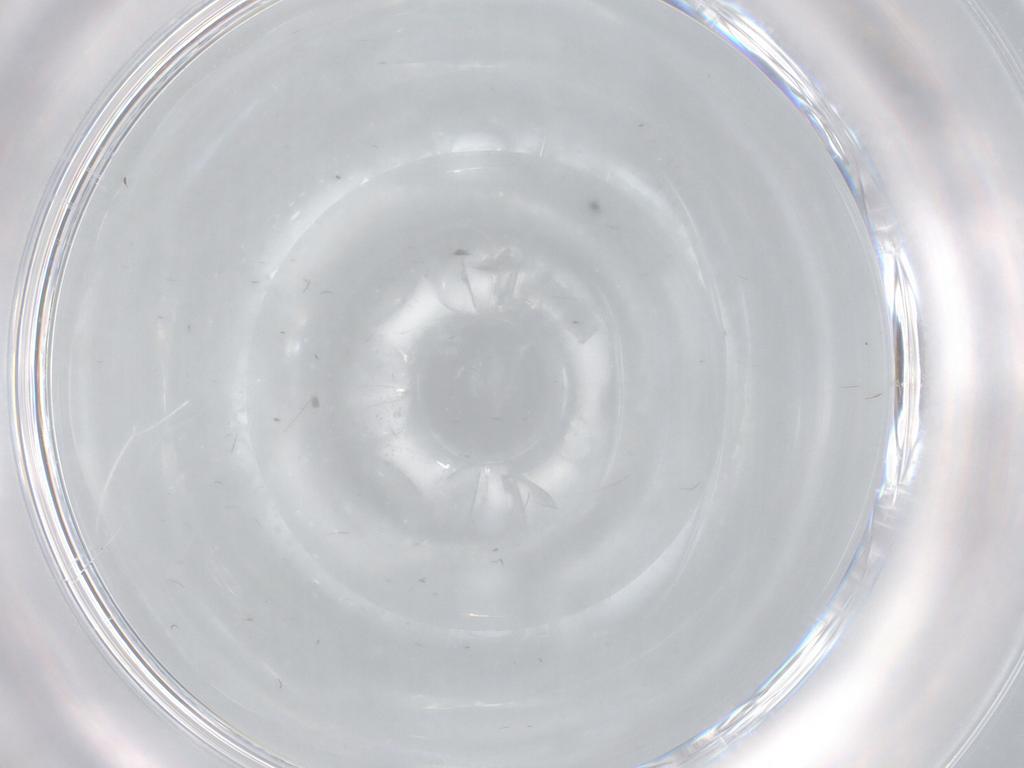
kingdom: Animalia
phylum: Arthropoda
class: Insecta
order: Diptera
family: Cecidomyiidae
